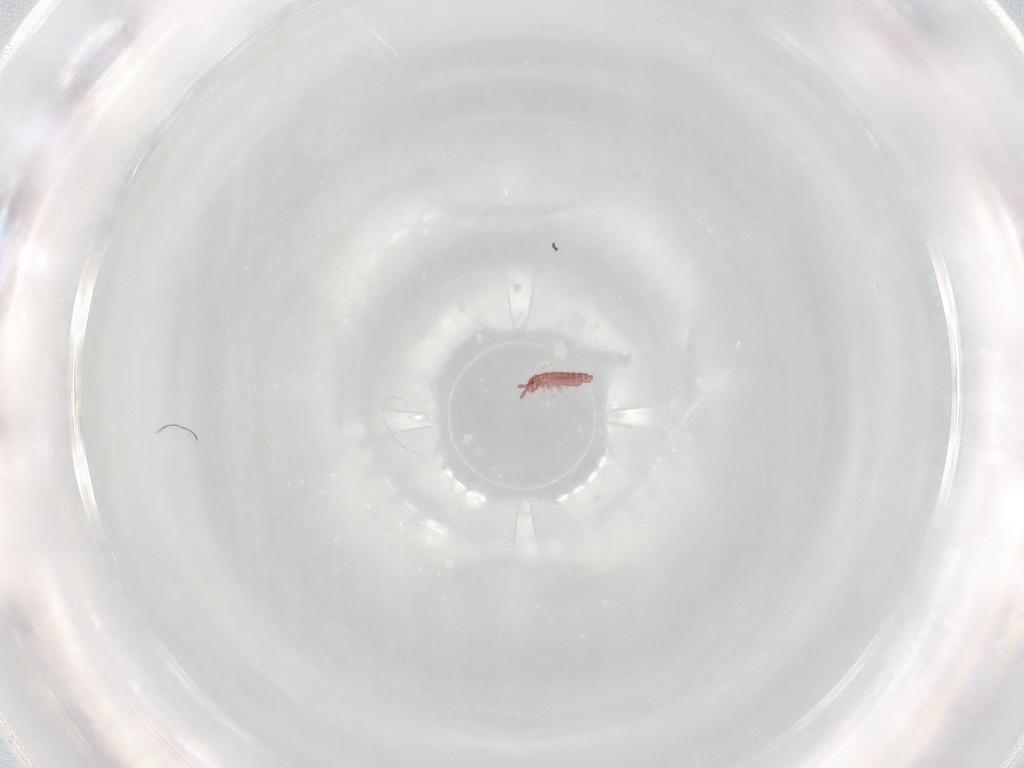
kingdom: Animalia
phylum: Arthropoda
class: Collembola
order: Poduromorpha
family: Hypogastruridae
